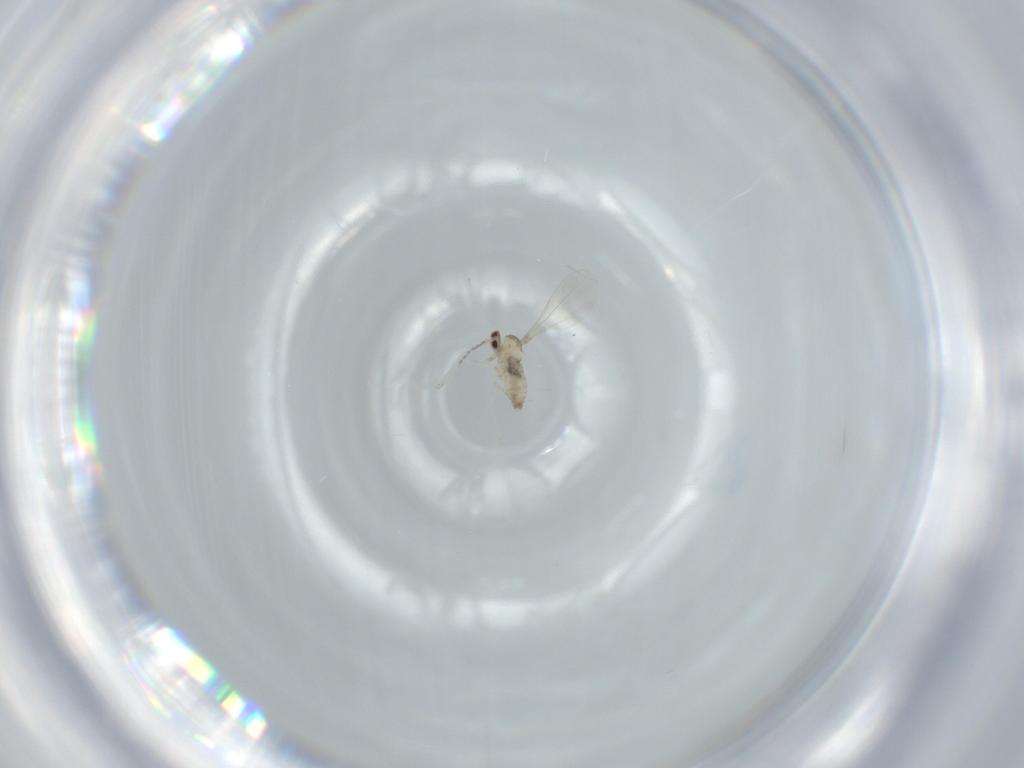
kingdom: Animalia
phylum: Arthropoda
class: Insecta
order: Diptera
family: Cecidomyiidae
